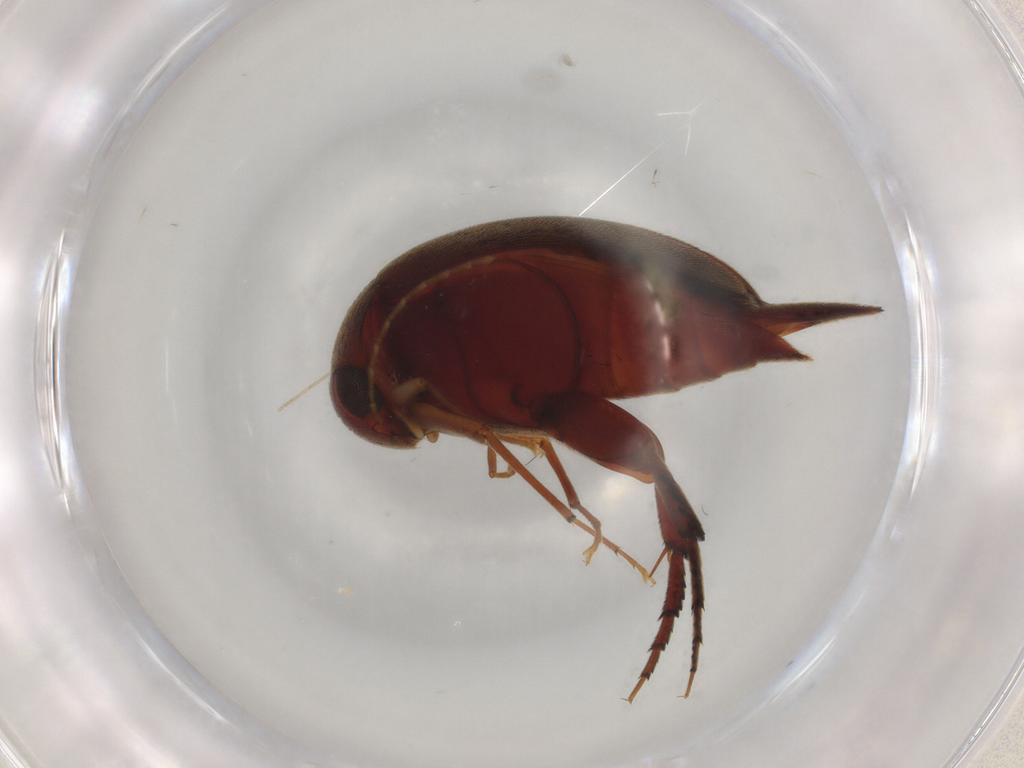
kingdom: Animalia
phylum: Arthropoda
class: Insecta
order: Coleoptera
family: Mordellidae
